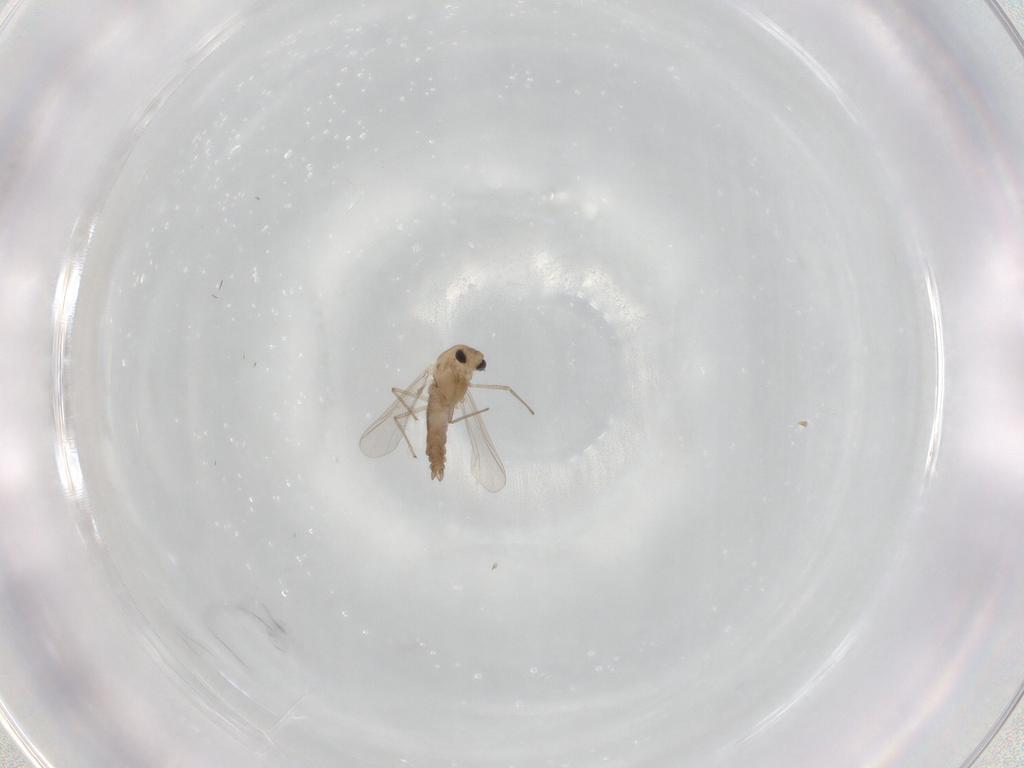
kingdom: Animalia
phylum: Arthropoda
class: Insecta
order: Diptera
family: Chironomidae
